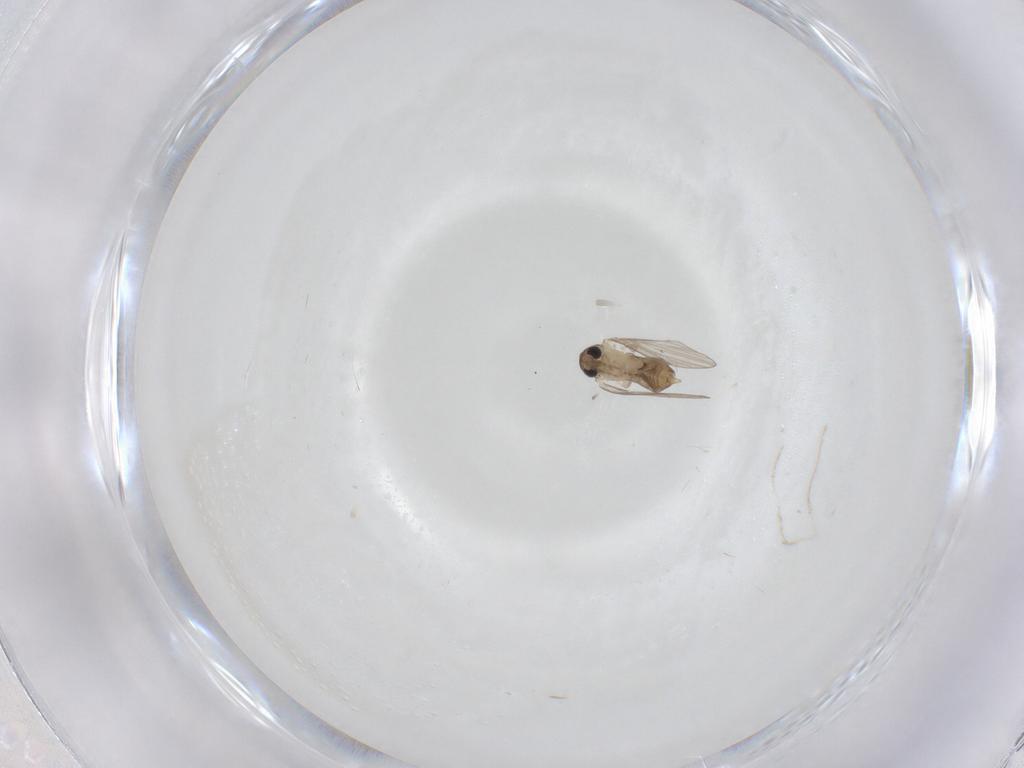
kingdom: Animalia
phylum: Arthropoda
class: Insecta
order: Diptera
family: Psychodidae
